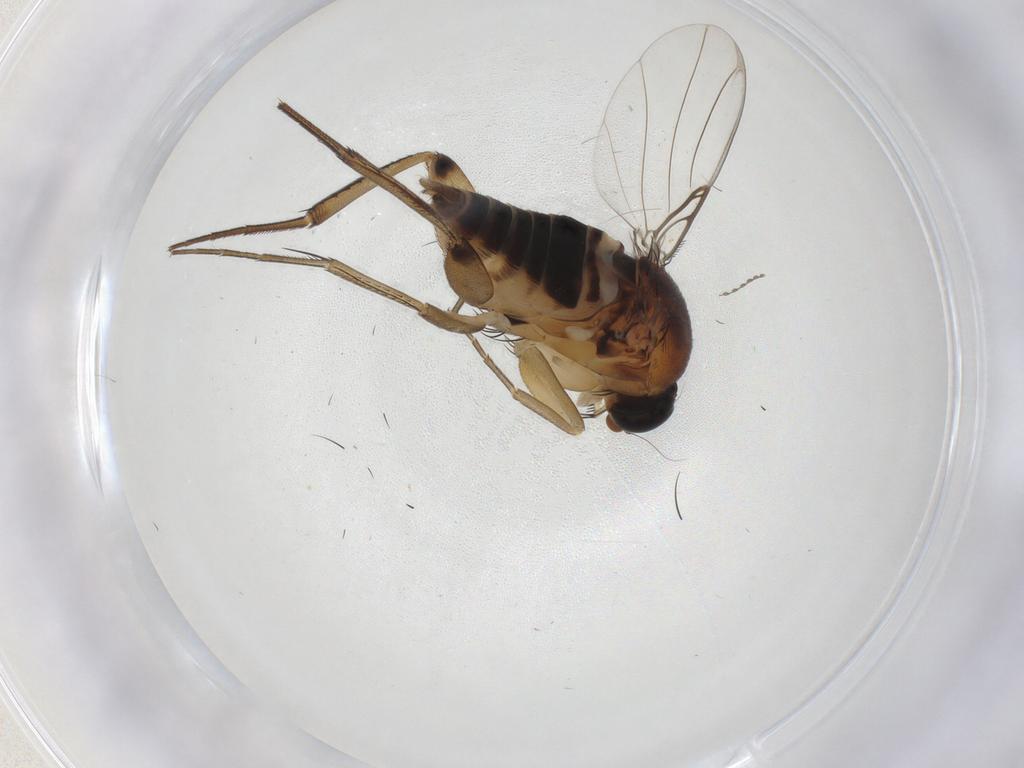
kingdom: Animalia
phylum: Arthropoda
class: Insecta
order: Diptera
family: Phoridae
